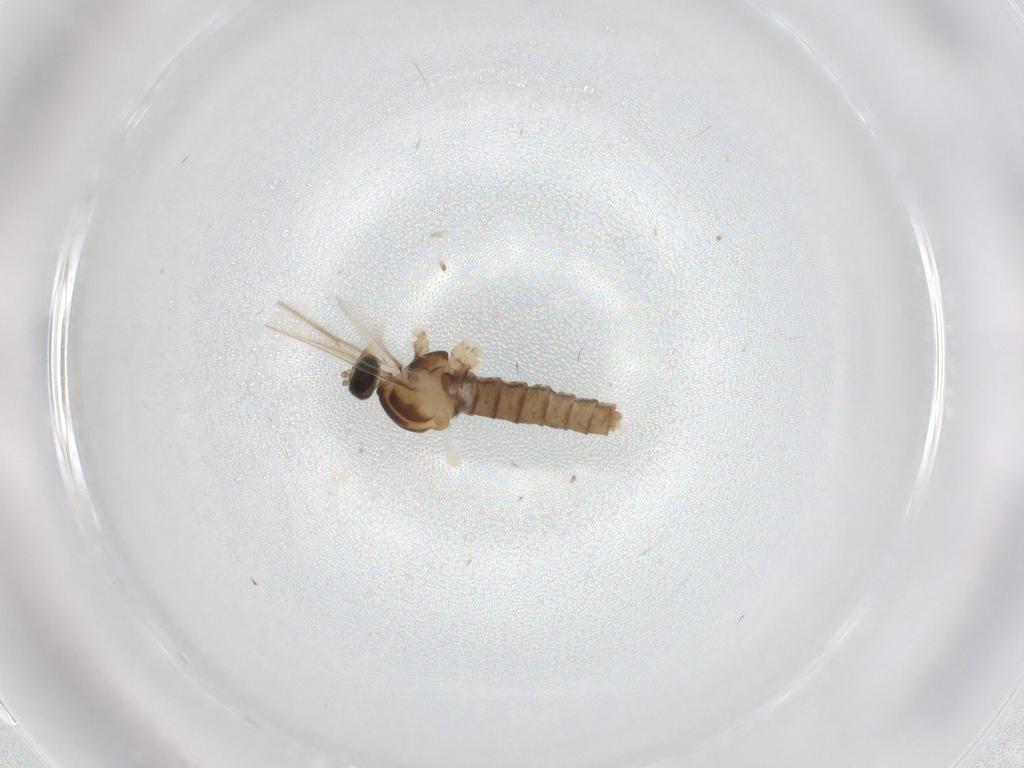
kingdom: Animalia
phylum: Arthropoda
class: Insecta
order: Diptera
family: Cecidomyiidae
